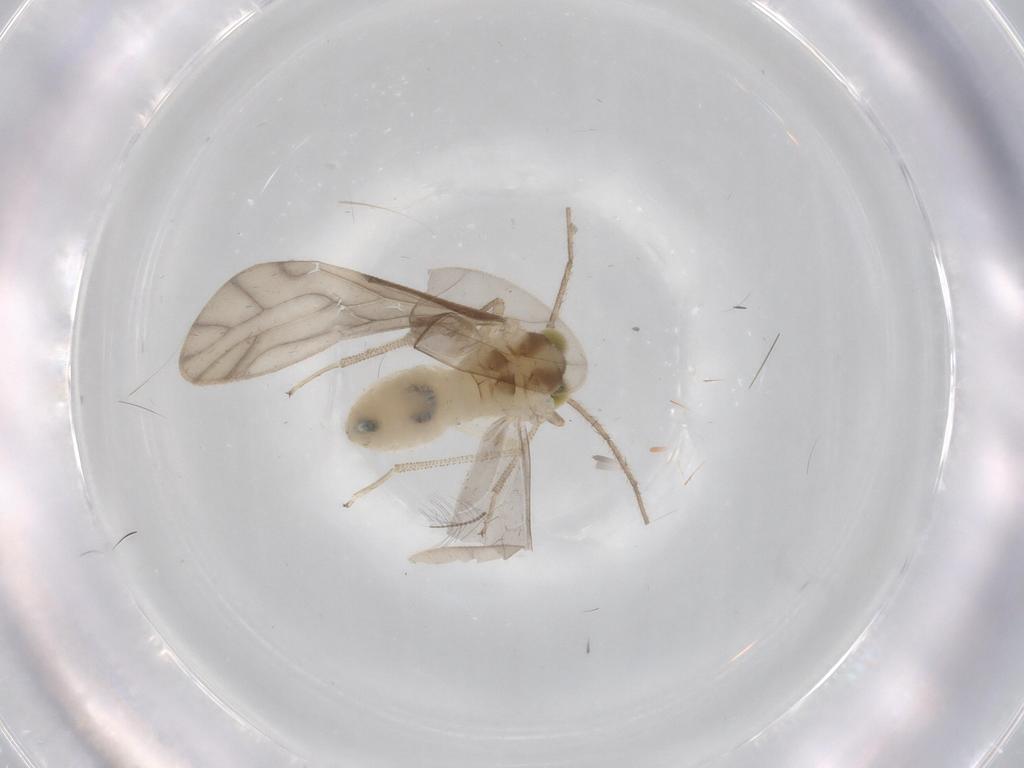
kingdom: Animalia
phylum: Arthropoda
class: Insecta
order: Psocodea
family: Caeciliusidae
